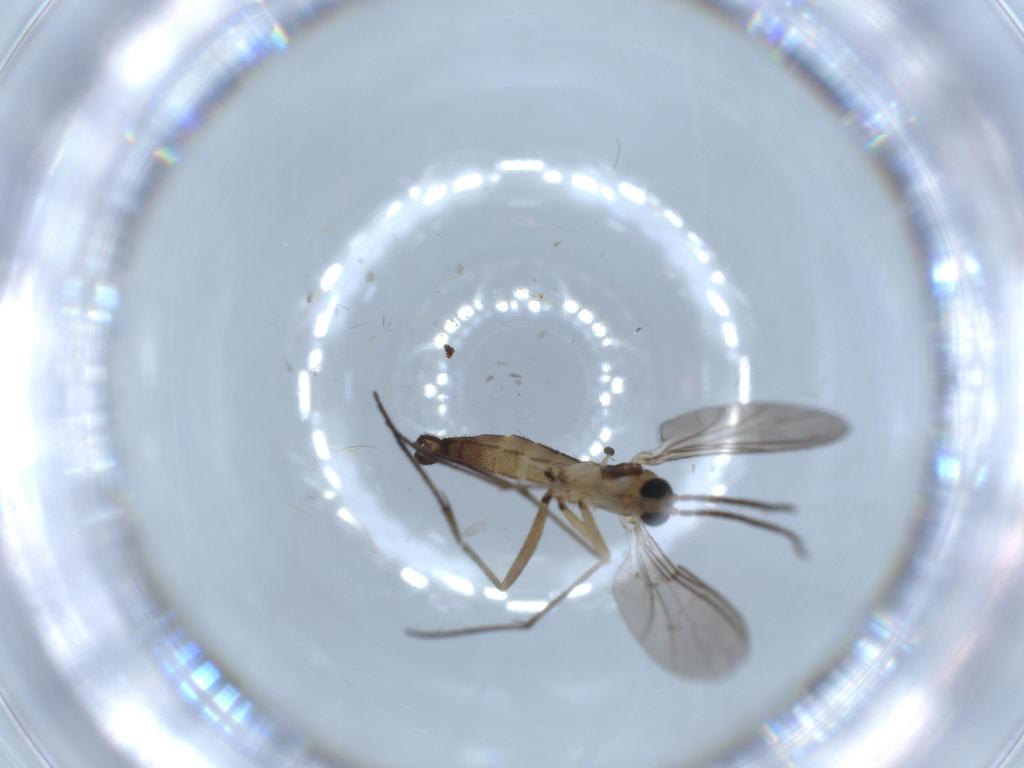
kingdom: Animalia
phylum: Arthropoda
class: Insecta
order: Diptera
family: Sciaridae
